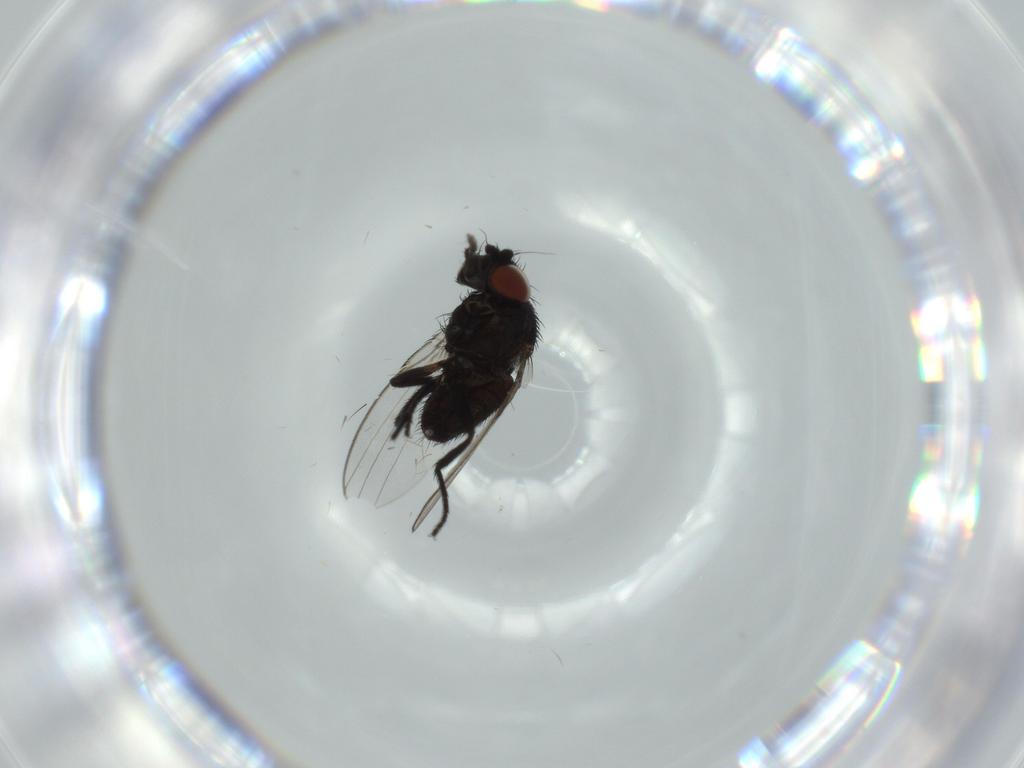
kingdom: Animalia
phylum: Arthropoda
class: Insecta
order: Diptera
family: Milichiidae
